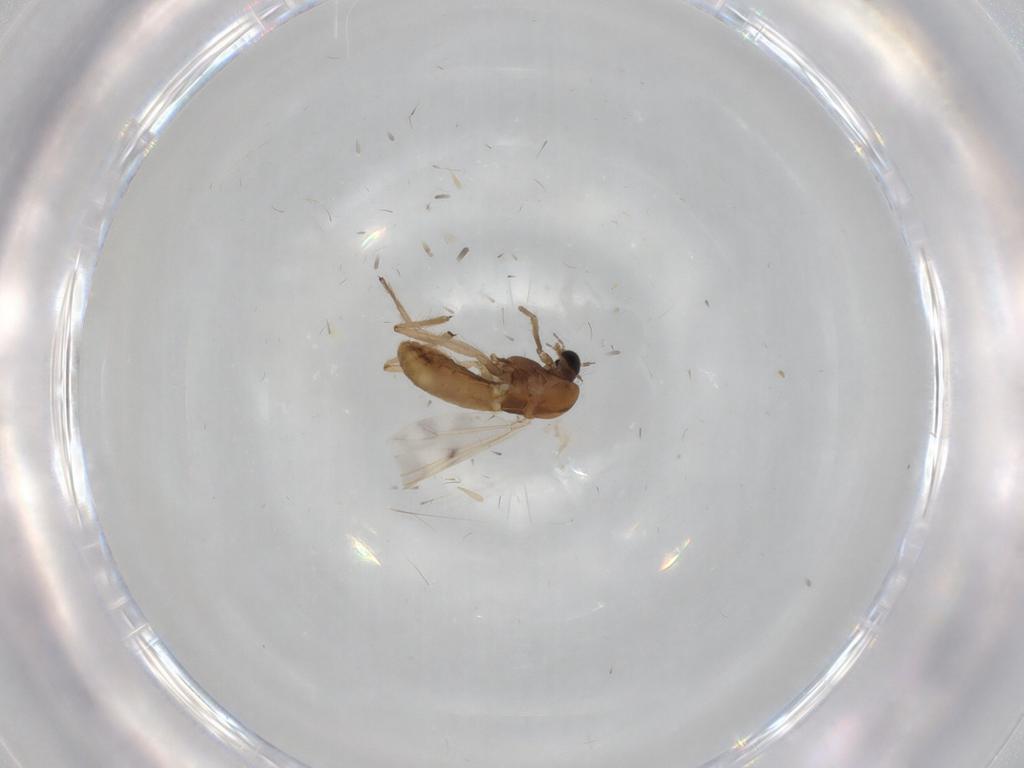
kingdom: Animalia
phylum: Arthropoda
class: Insecta
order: Diptera
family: Chironomidae
